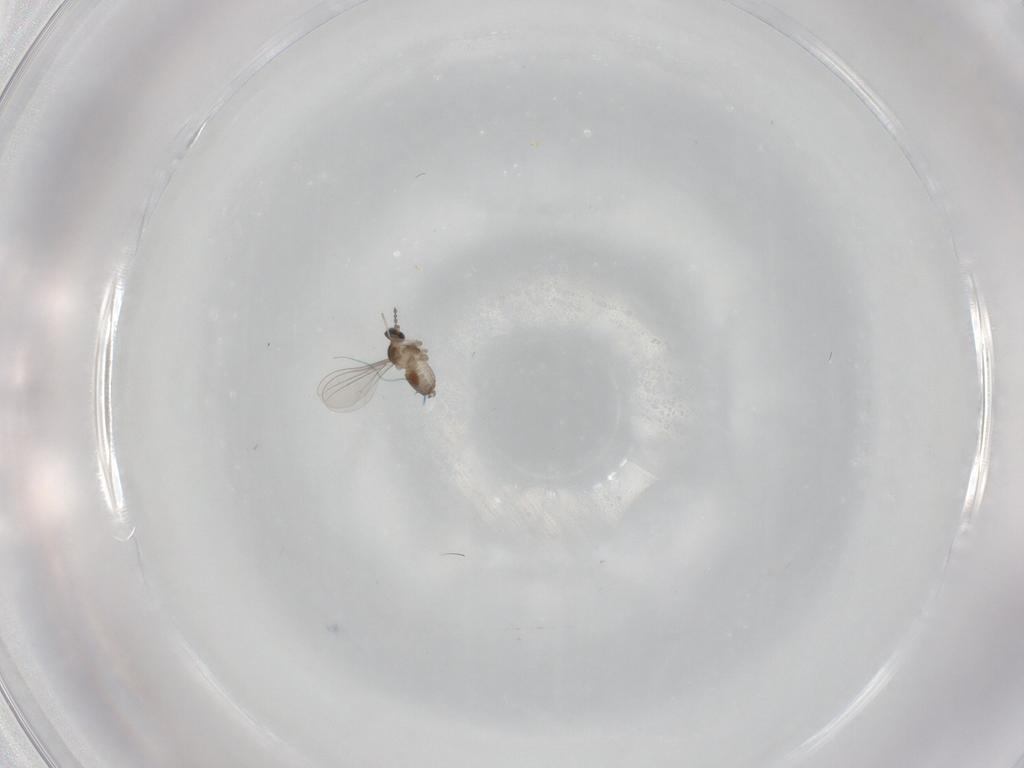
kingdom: Animalia
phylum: Arthropoda
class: Insecta
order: Diptera
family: Cecidomyiidae
